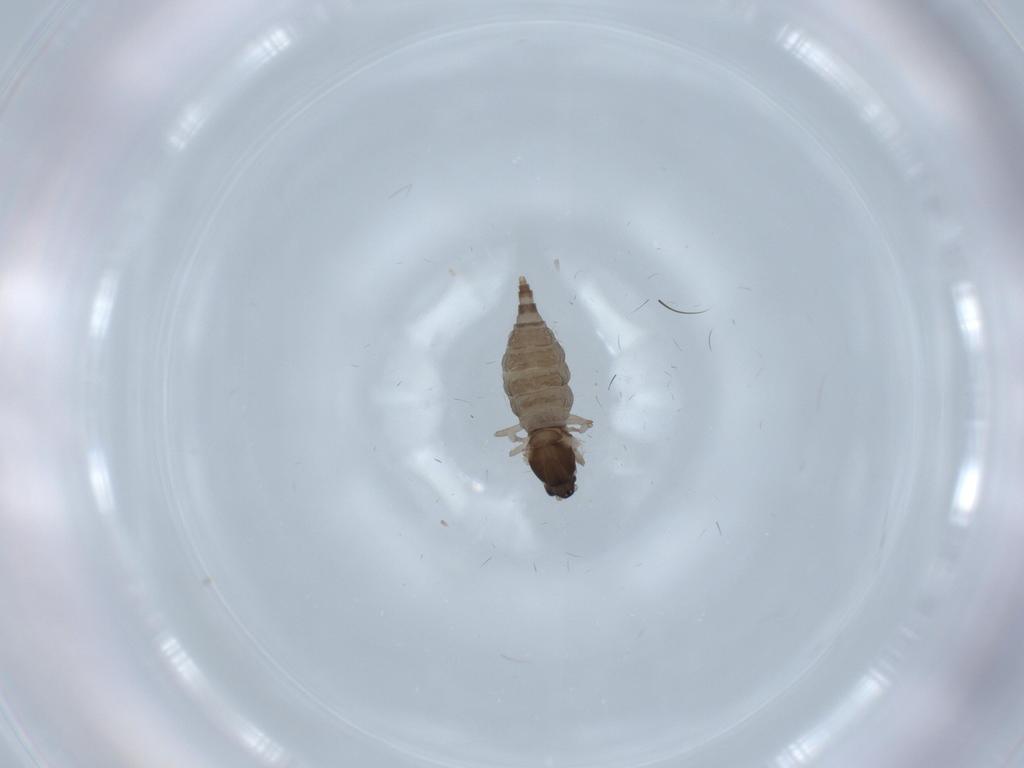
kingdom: Animalia
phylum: Arthropoda
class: Insecta
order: Diptera
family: Cecidomyiidae
